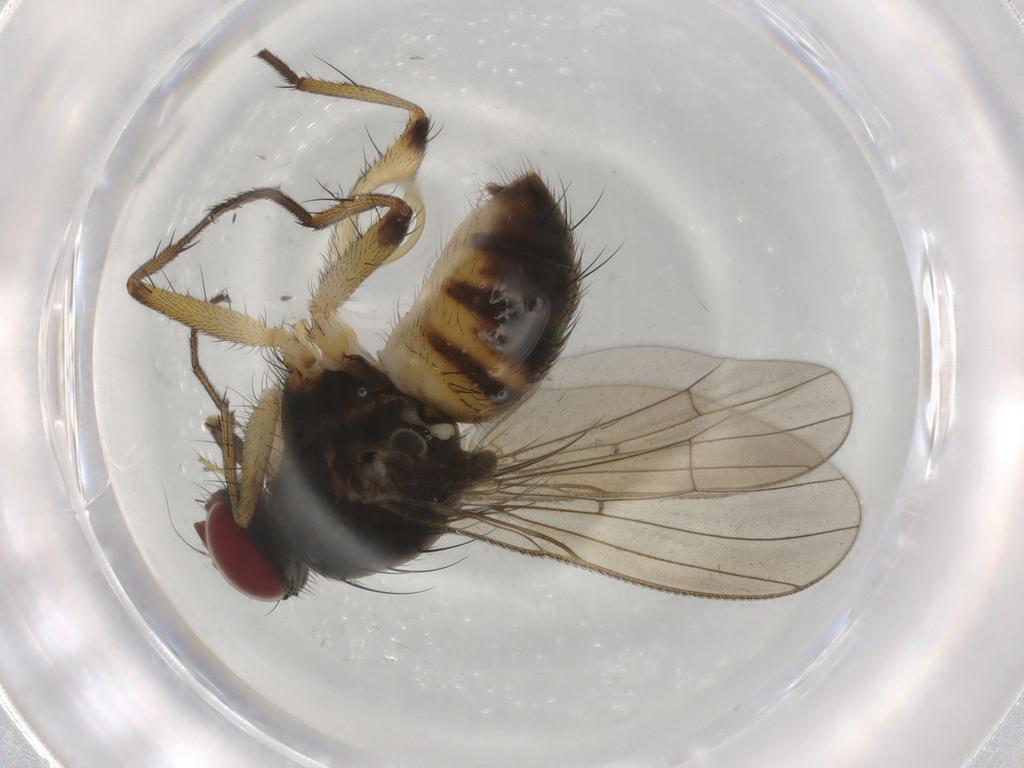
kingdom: Animalia
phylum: Arthropoda
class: Insecta
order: Diptera
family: Muscidae
